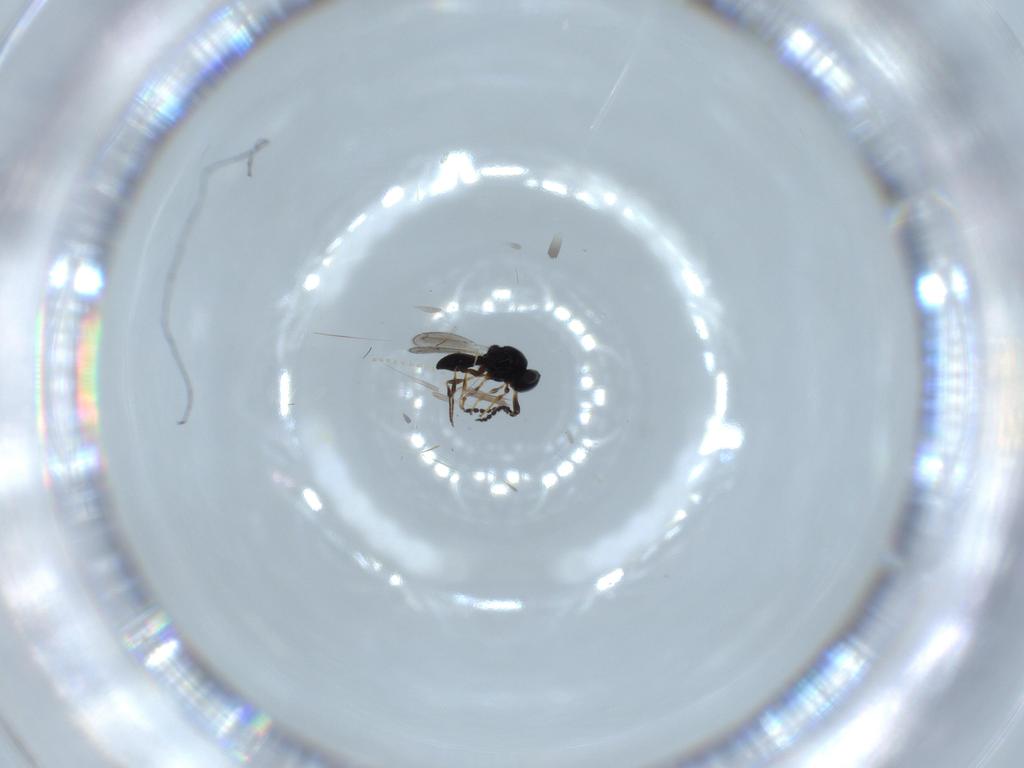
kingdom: Animalia
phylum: Arthropoda
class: Insecta
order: Hymenoptera
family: Platygastridae
